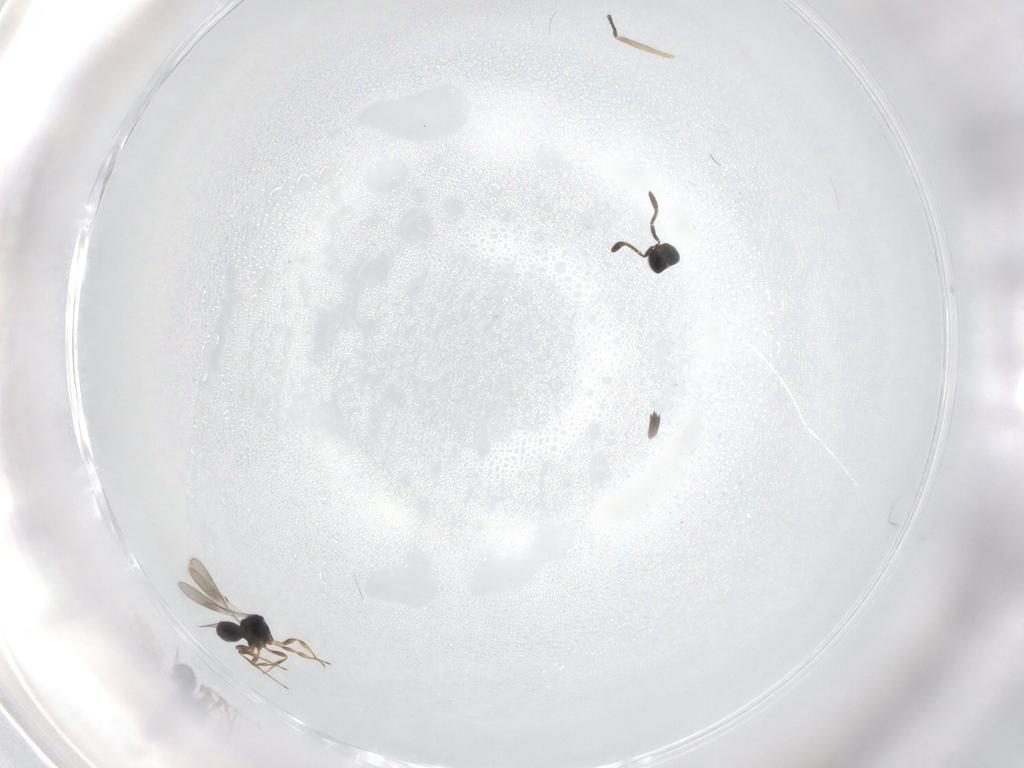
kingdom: Animalia
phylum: Arthropoda
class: Insecta
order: Hymenoptera
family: Scelionidae
